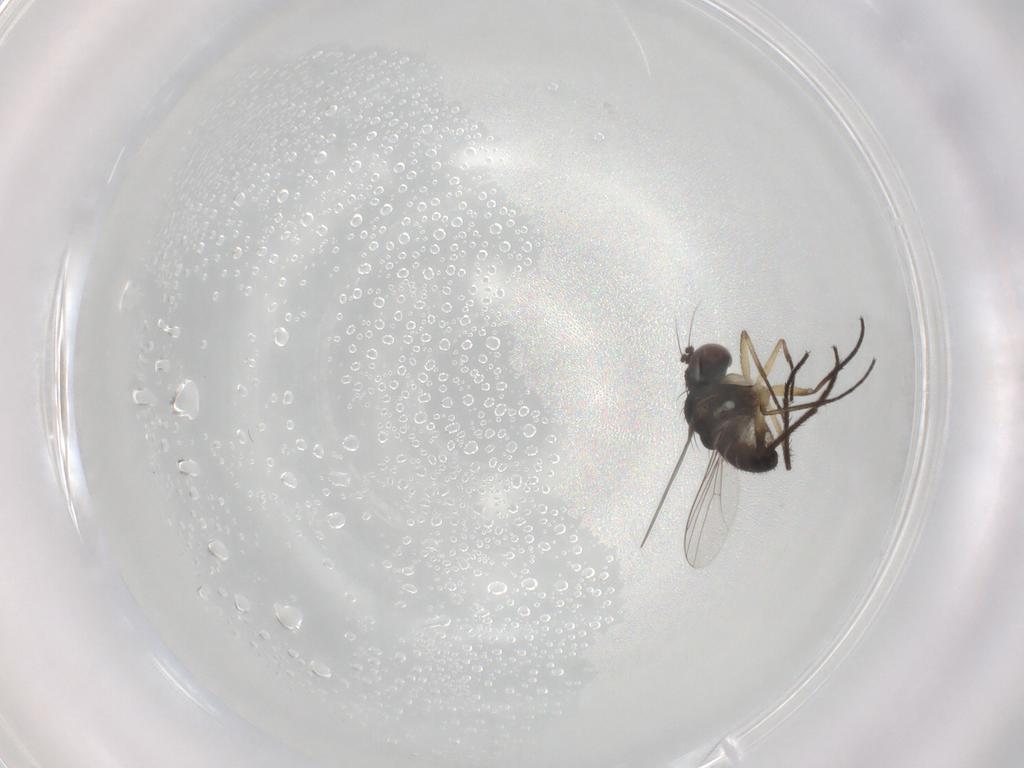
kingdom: Animalia
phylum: Arthropoda
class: Insecta
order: Diptera
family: Dolichopodidae
